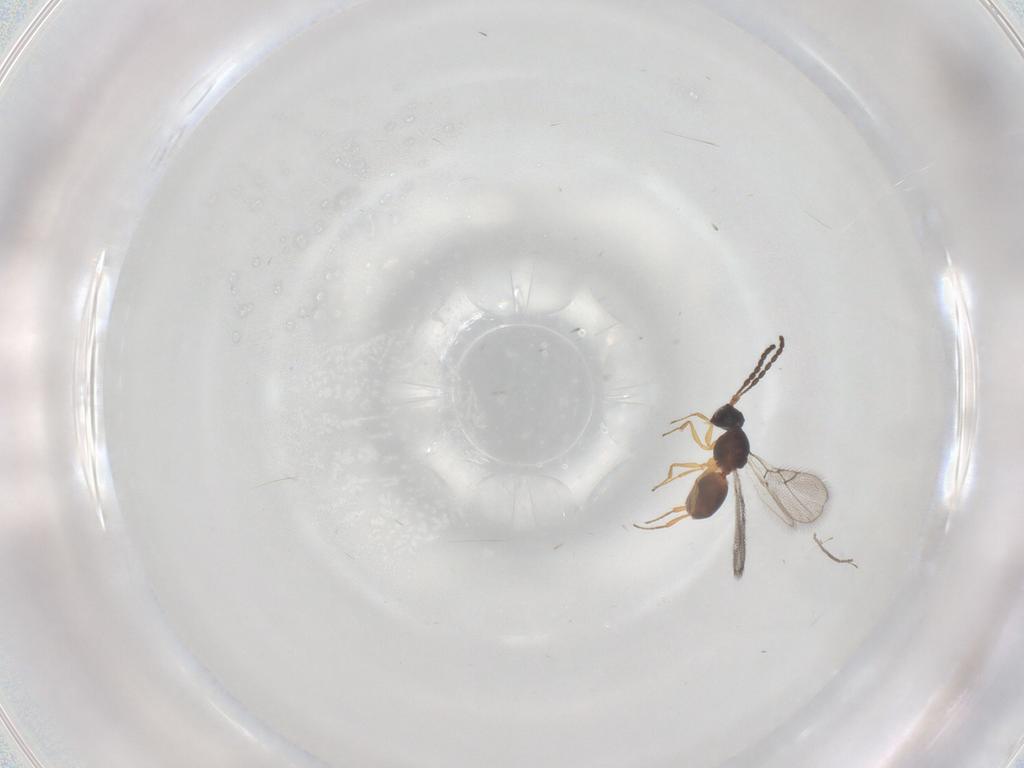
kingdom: Animalia
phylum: Arthropoda
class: Insecta
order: Hymenoptera
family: Figitidae
